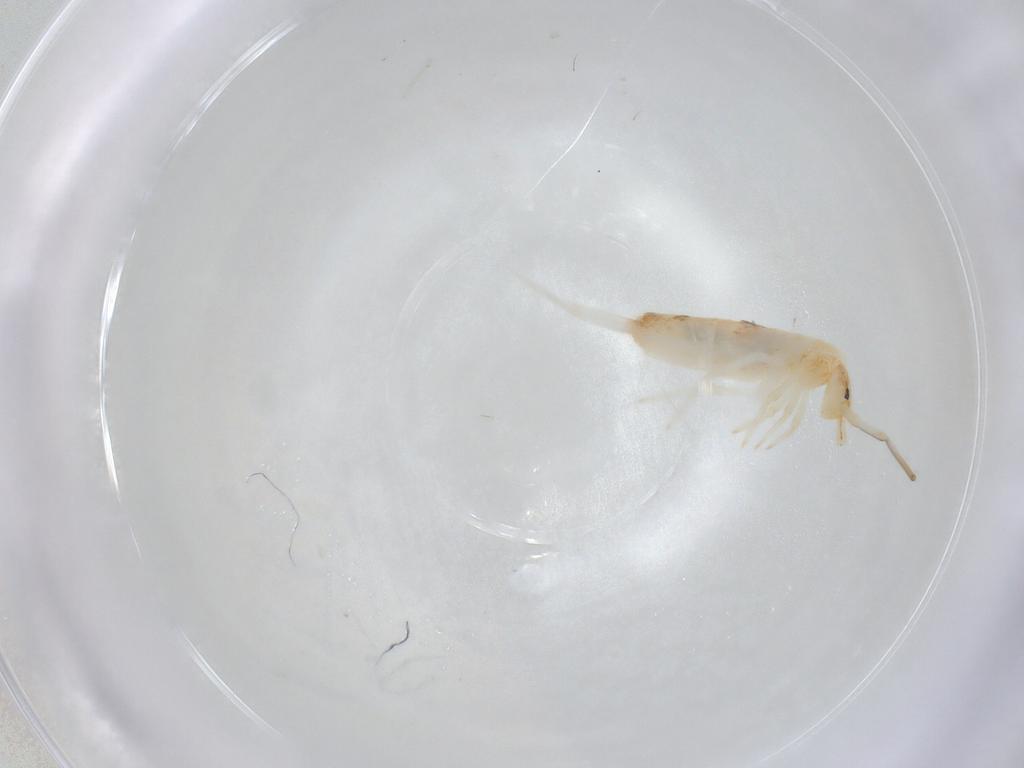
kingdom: Animalia
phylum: Arthropoda
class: Collembola
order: Entomobryomorpha
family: Entomobryidae
